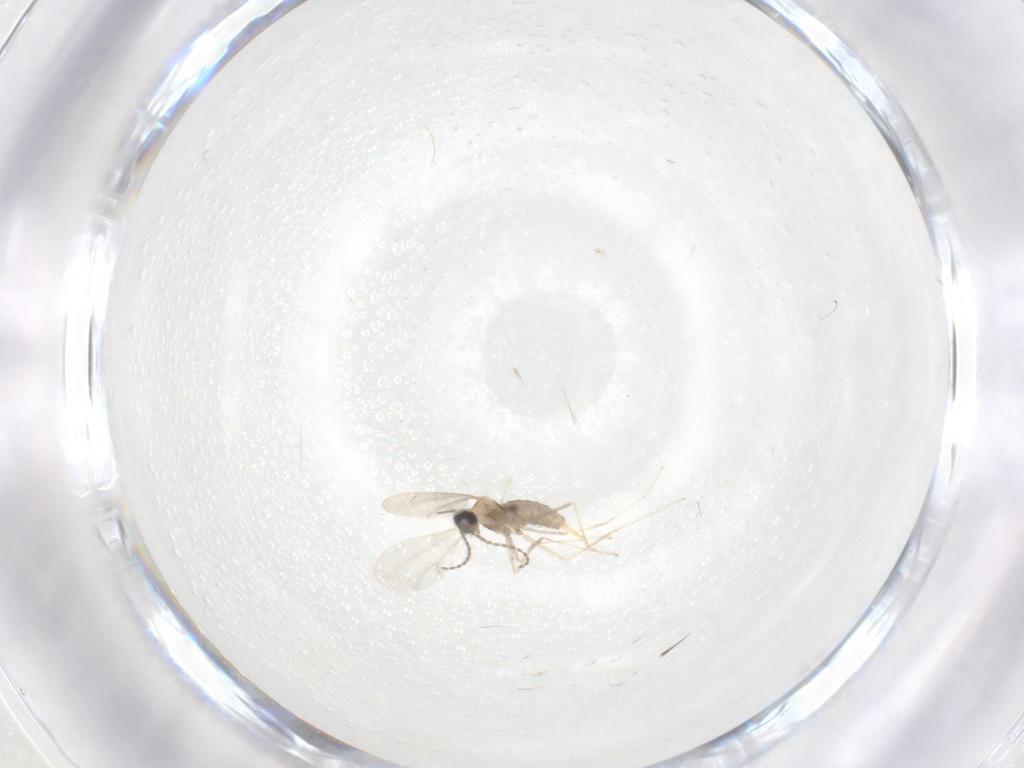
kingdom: Animalia
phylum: Arthropoda
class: Insecta
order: Diptera
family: Cecidomyiidae
